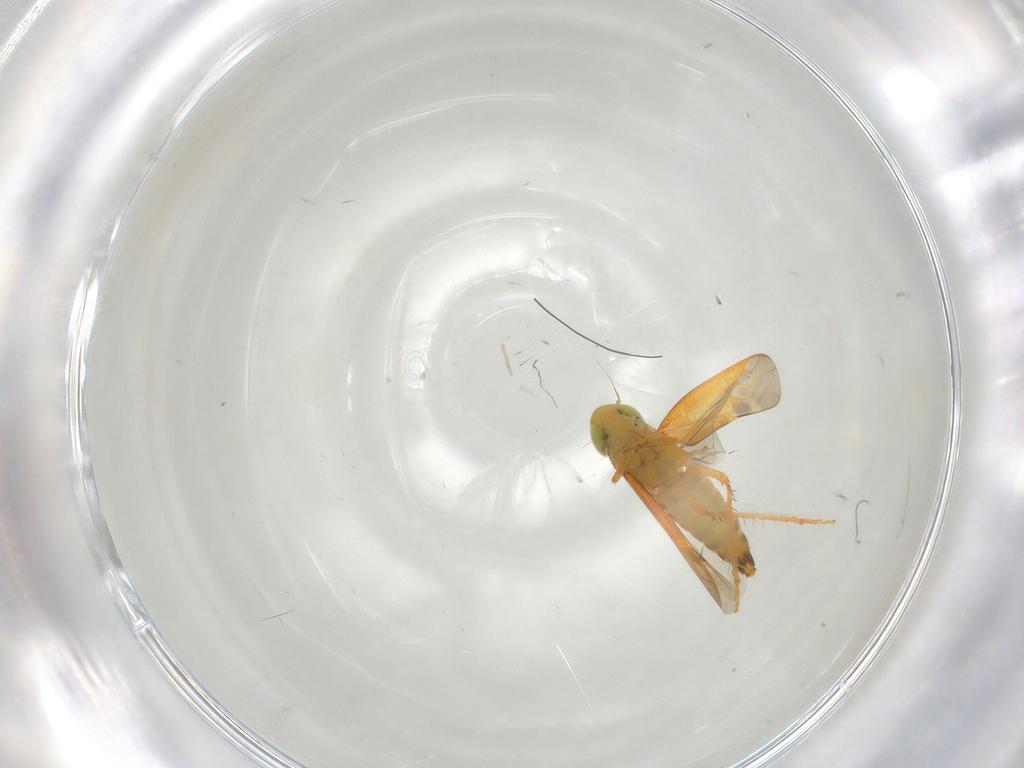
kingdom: Animalia
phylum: Arthropoda
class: Insecta
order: Hemiptera
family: Cicadellidae
